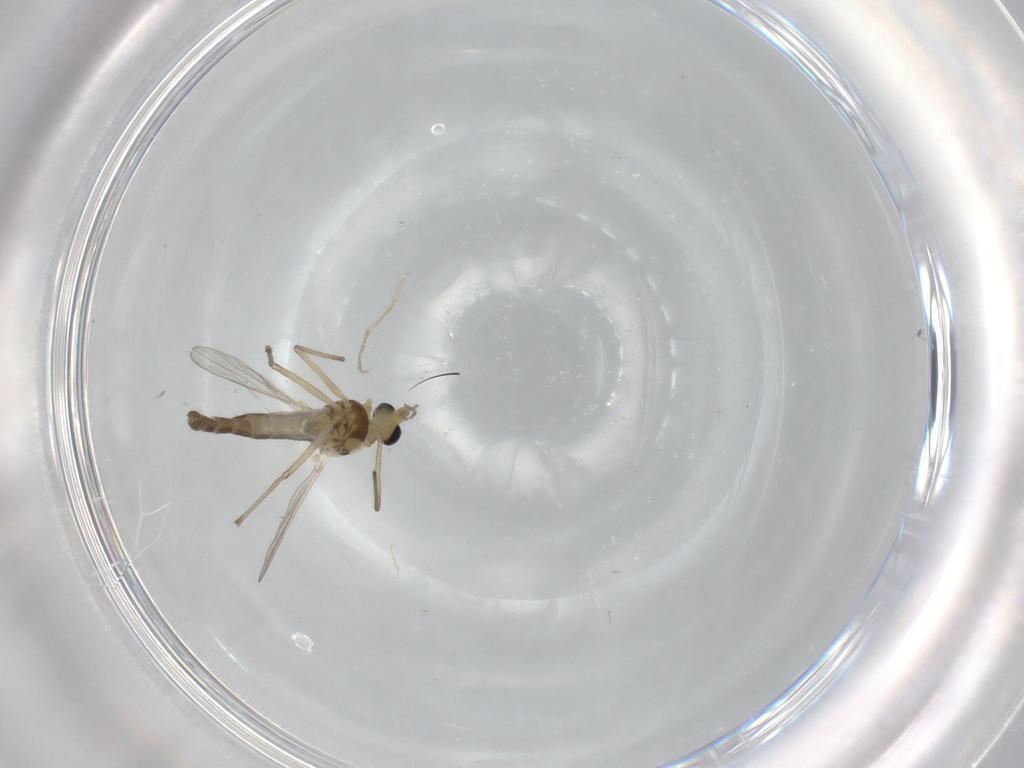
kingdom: Animalia
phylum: Arthropoda
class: Insecta
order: Diptera
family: Chironomidae
